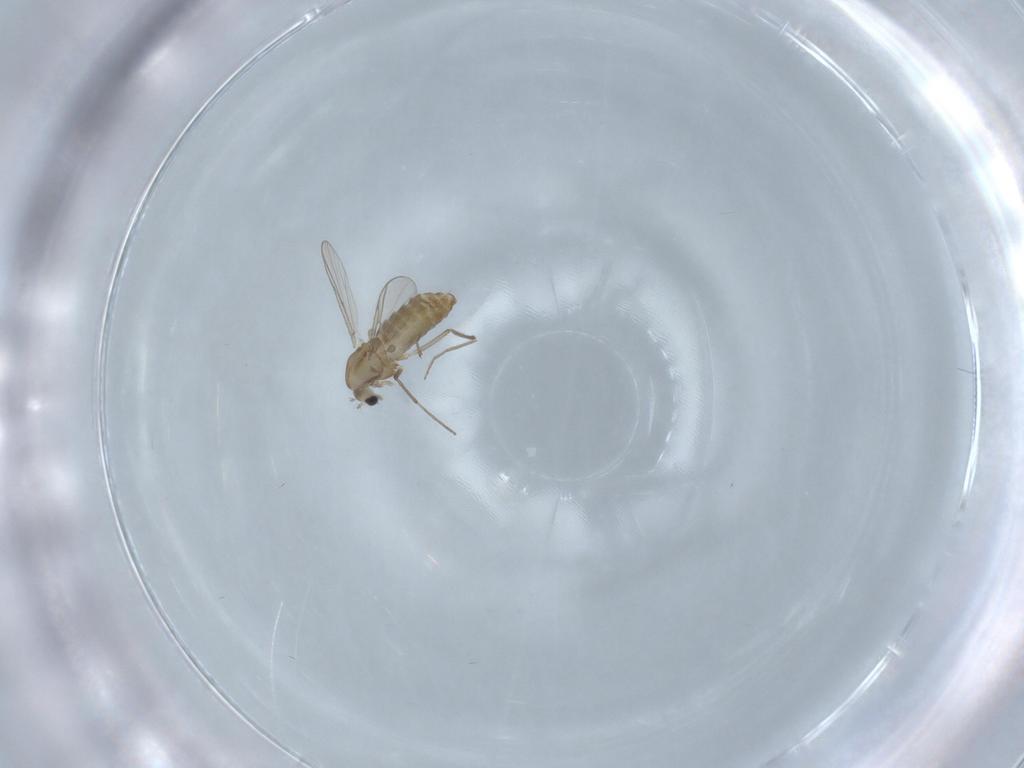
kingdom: Animalia
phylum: Arthropoda
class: Insecta
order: Diptera
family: Chironomidae
